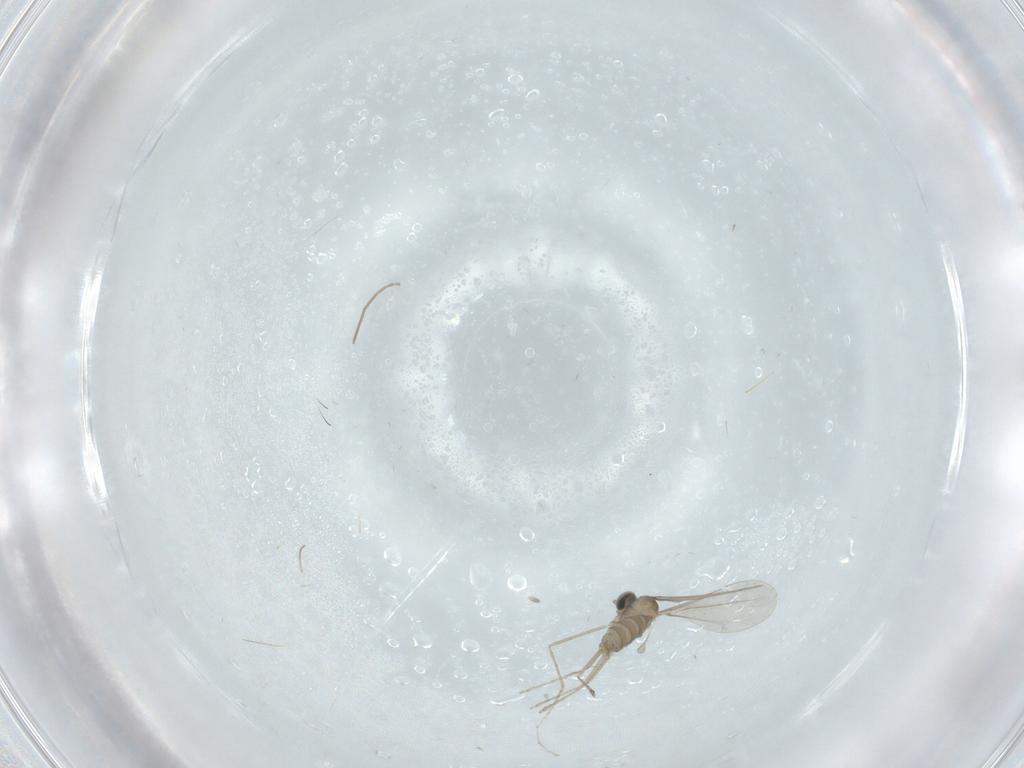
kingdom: Animalia
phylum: Arthropoda
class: Insecta
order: Diptera
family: Cecidomyiidae
